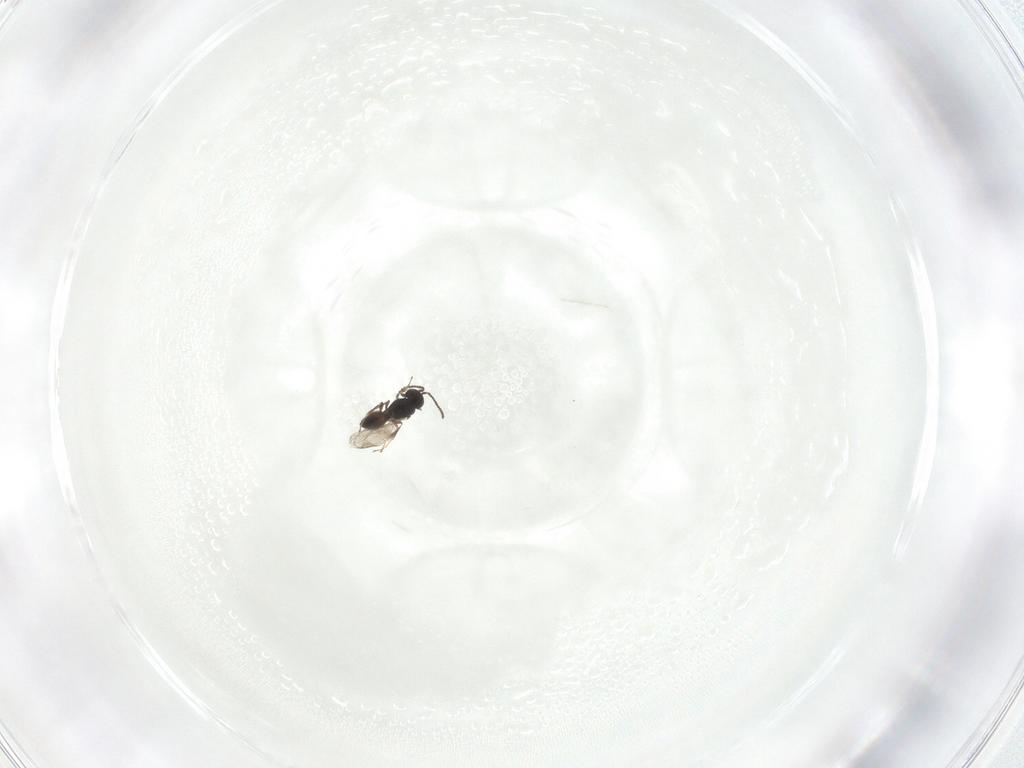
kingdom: Animalia
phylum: Arthropoda
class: Insecta
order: Hymenoptera
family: Scelionidae
